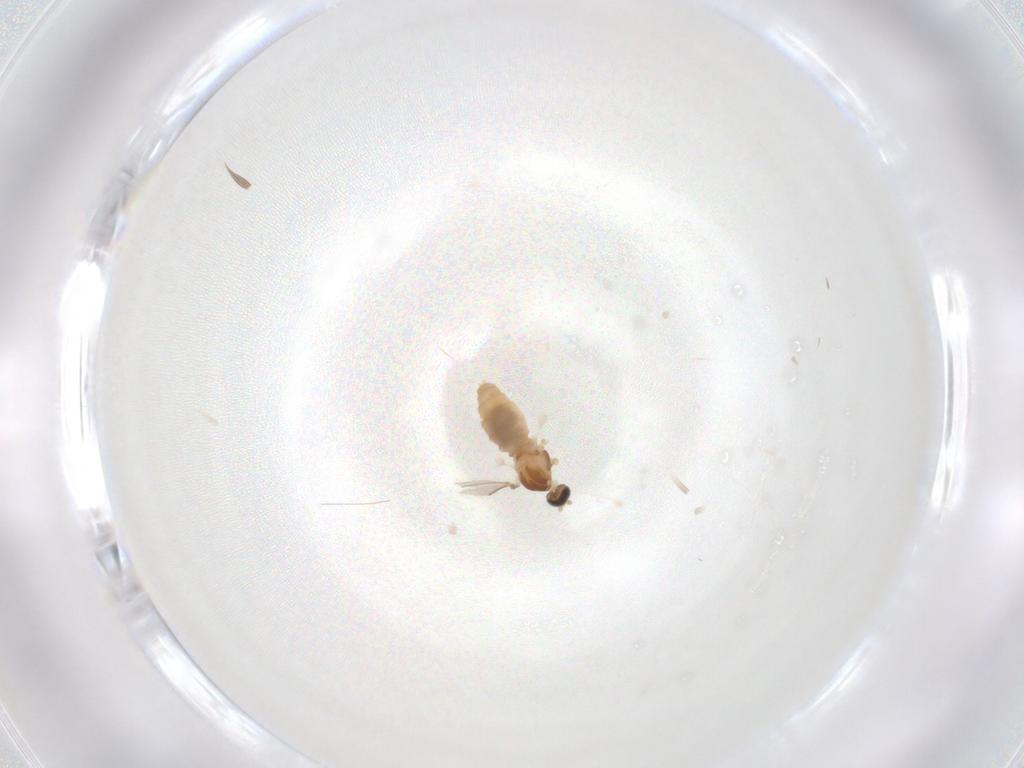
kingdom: Animalia
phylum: Arthropoda
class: Insecta
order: Diptera
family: Cecidomyiidae
